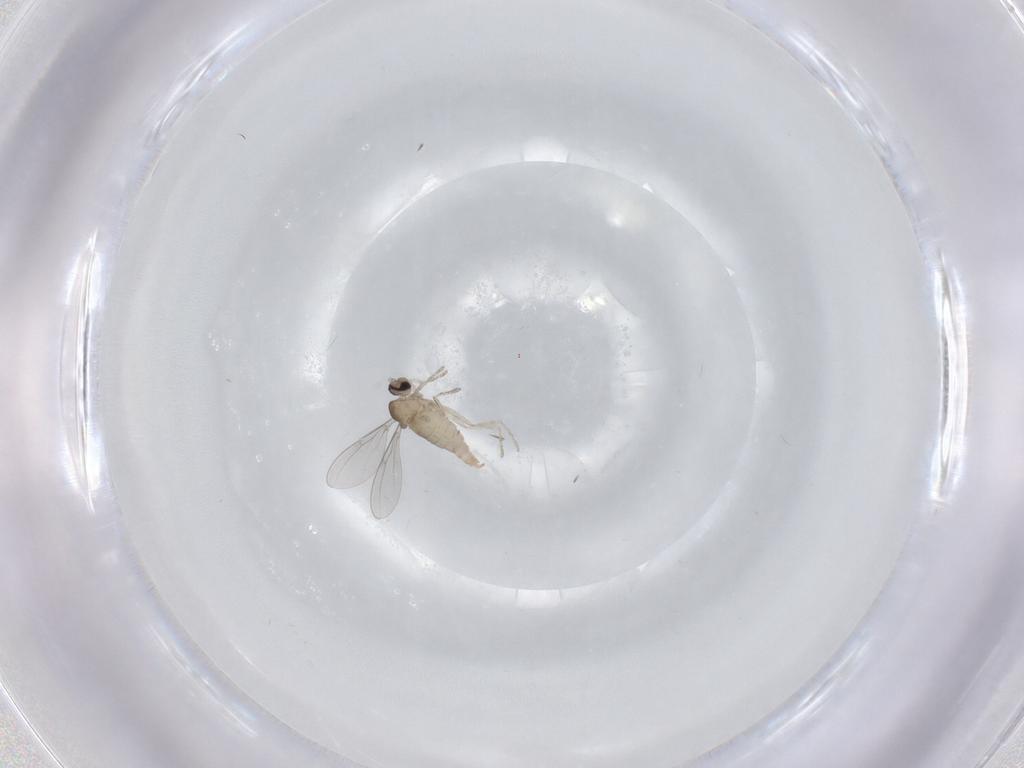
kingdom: Animalia
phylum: Arthropoda
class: Insecta
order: Diptera
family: Cecidomyiidae
